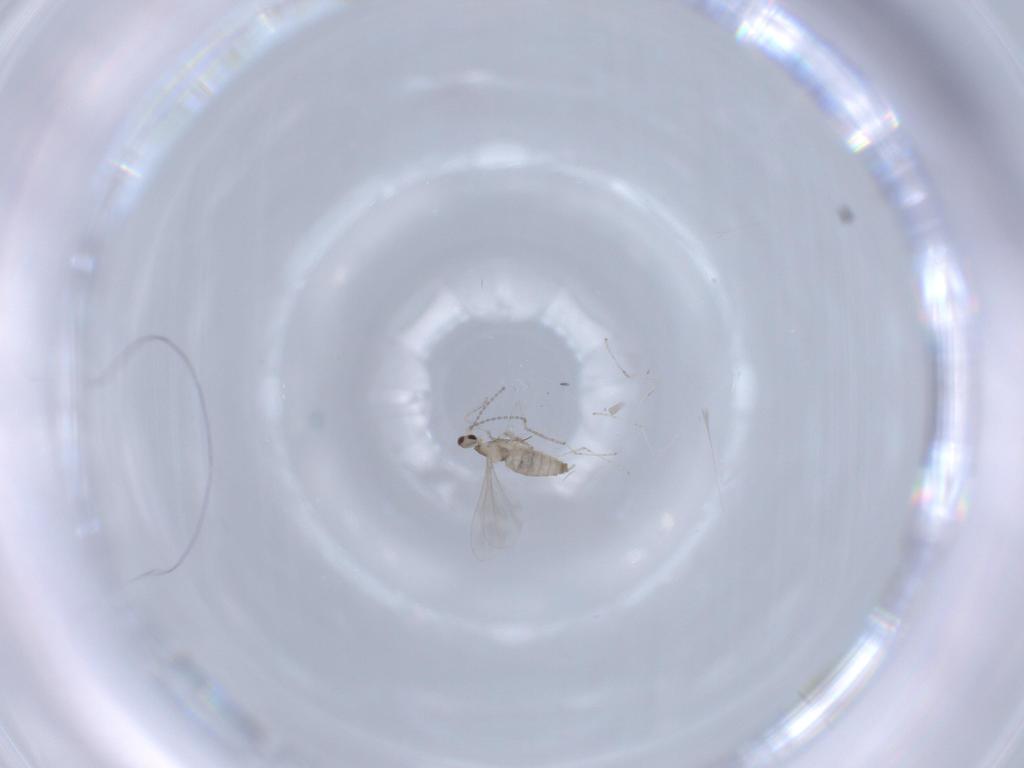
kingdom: Animalia
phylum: Arthropoda
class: Insecta
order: Diptera
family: Cecidomyiidae
